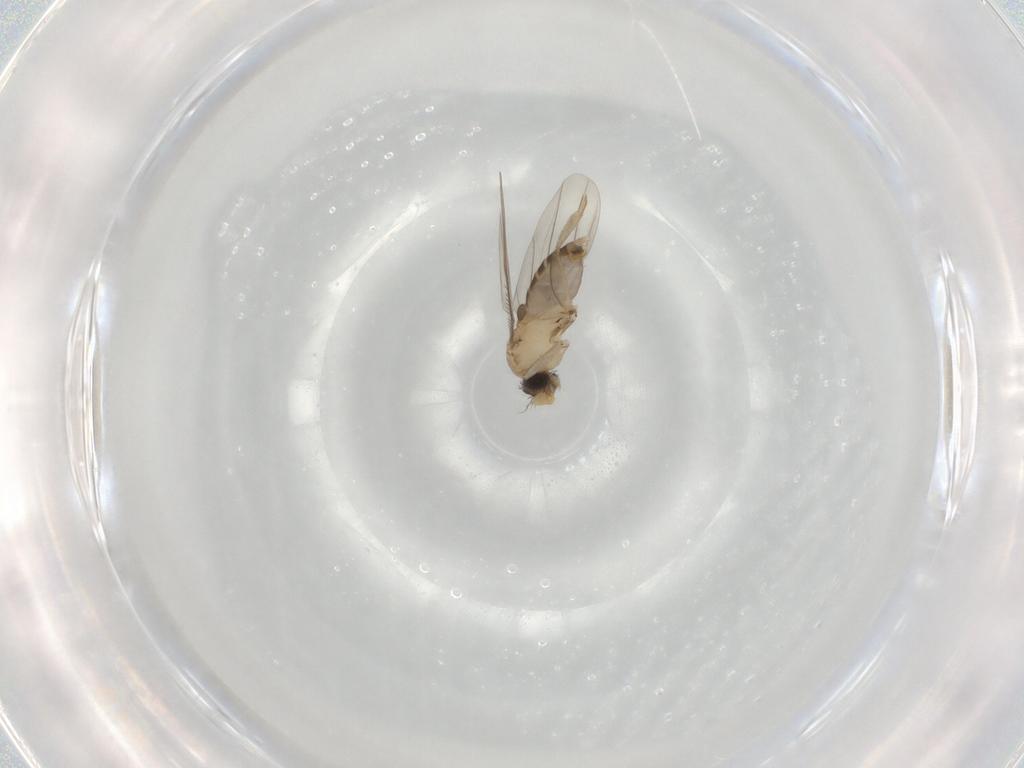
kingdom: Animalia
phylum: Arthropoda
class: Insecta
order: Diptera
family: Phoridae
